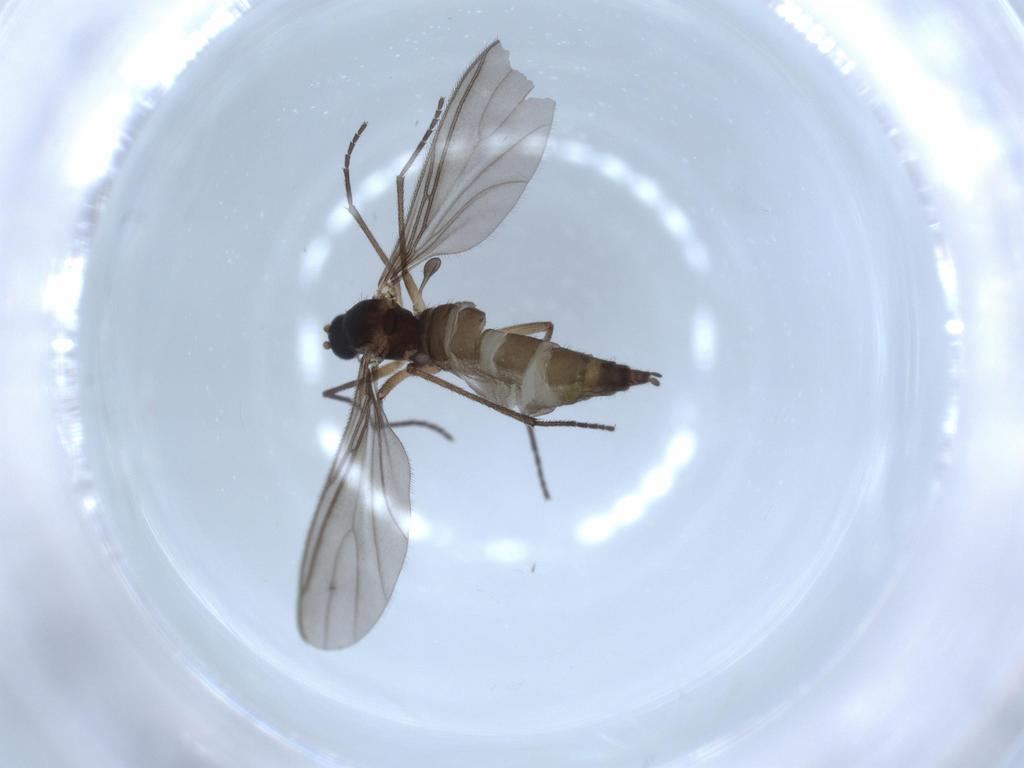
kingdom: Animalia
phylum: Arthropoda
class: Insecta
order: Diptera
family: Sciaridae
